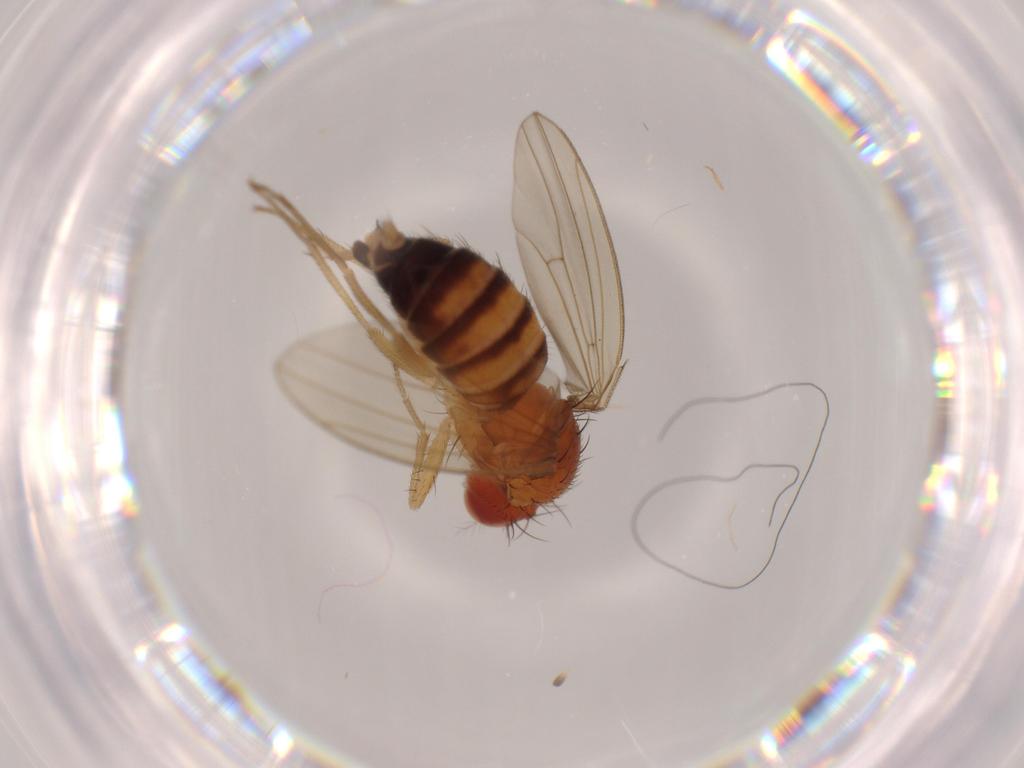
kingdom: Animalia
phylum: Arthropoda
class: Insecta
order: Diptera
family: Drosophilidae
